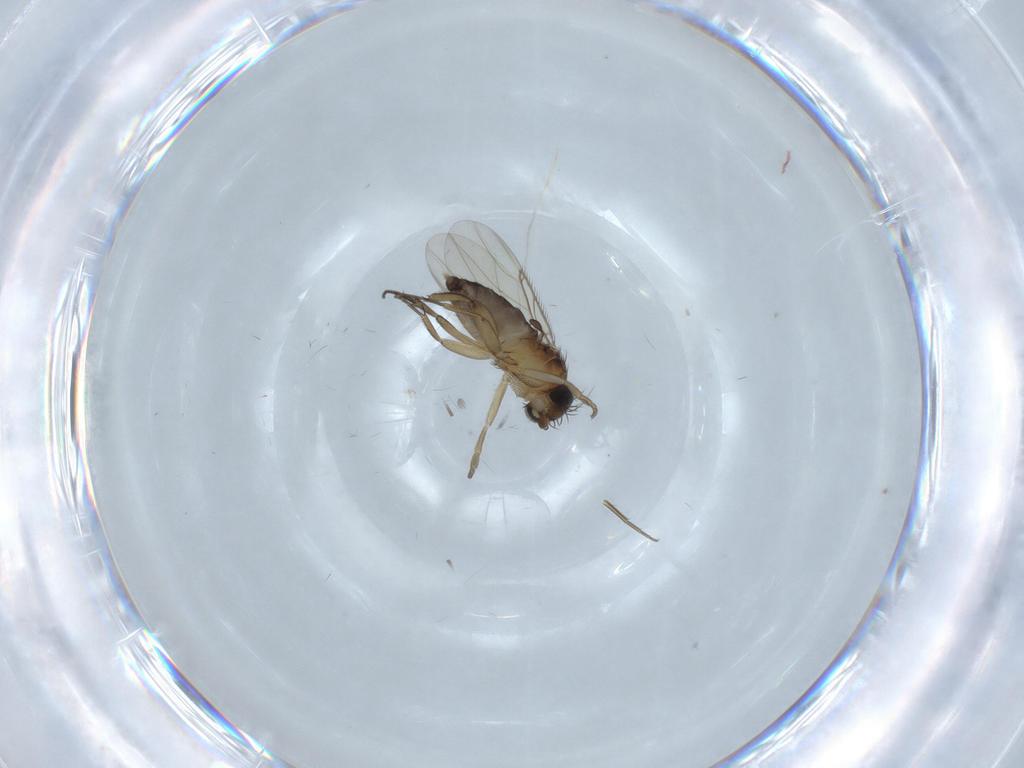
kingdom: Animalia
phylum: Arthropoda
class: Insecta
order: Diptera
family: Phoridae
